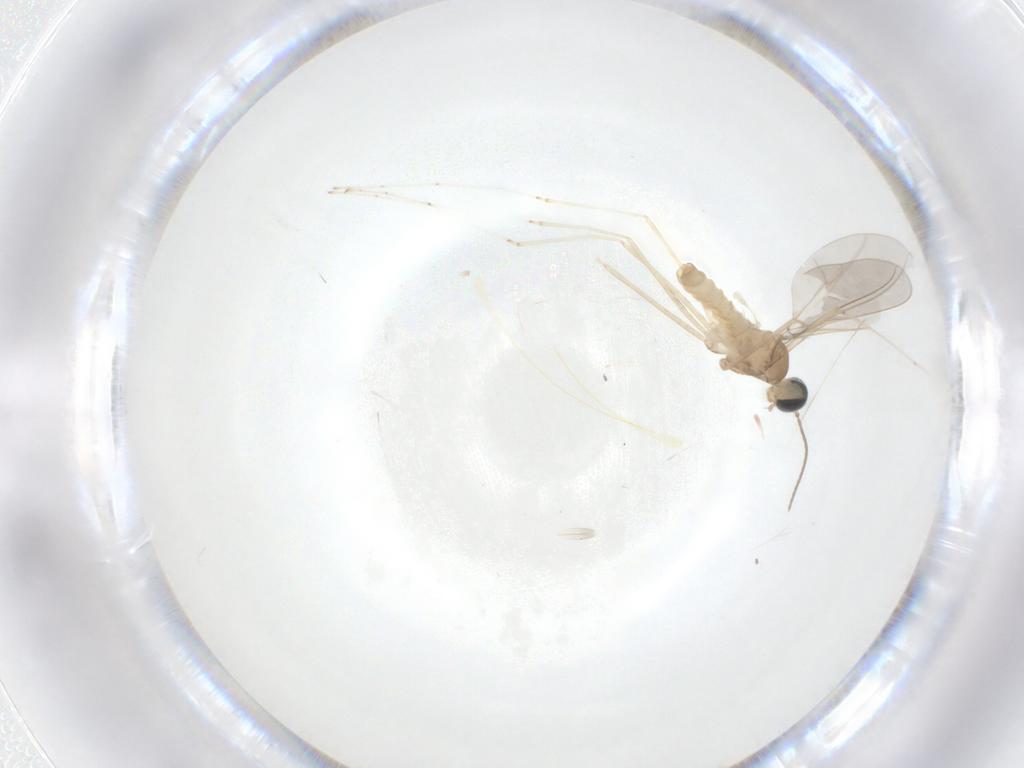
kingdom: Animalia
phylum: Arthropoda
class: Insecta
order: Diptera
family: Cecidomyiidae
